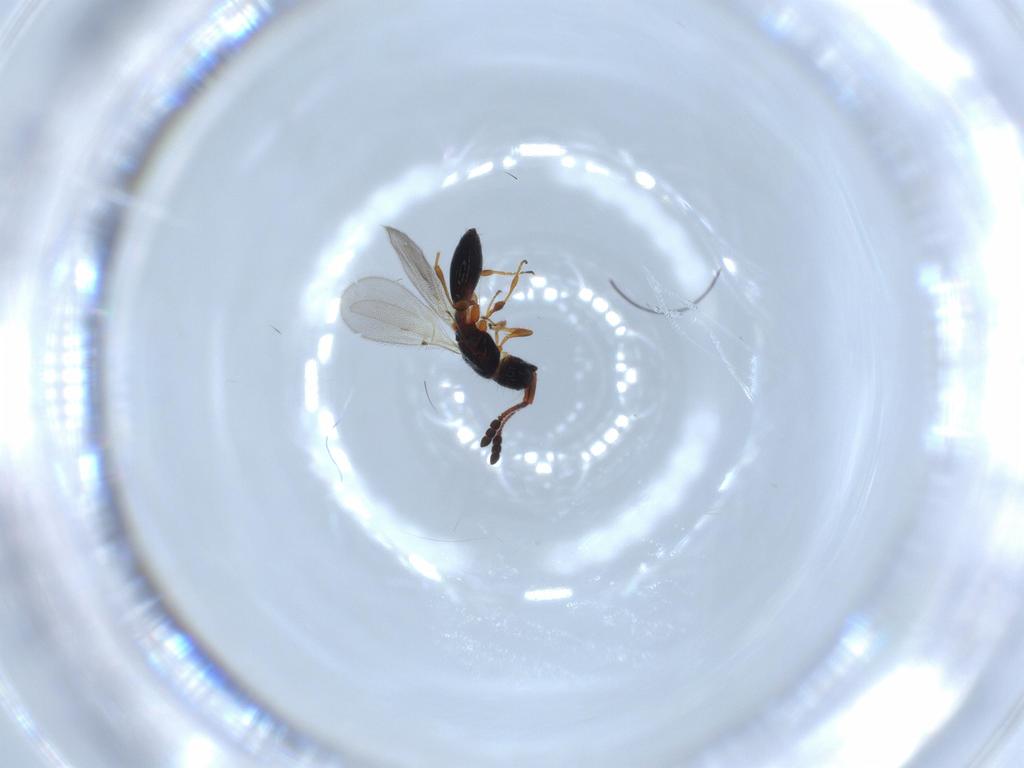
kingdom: Animalia
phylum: Arthropoda
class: Insecta
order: Hymenoptera
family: Diapriidae
